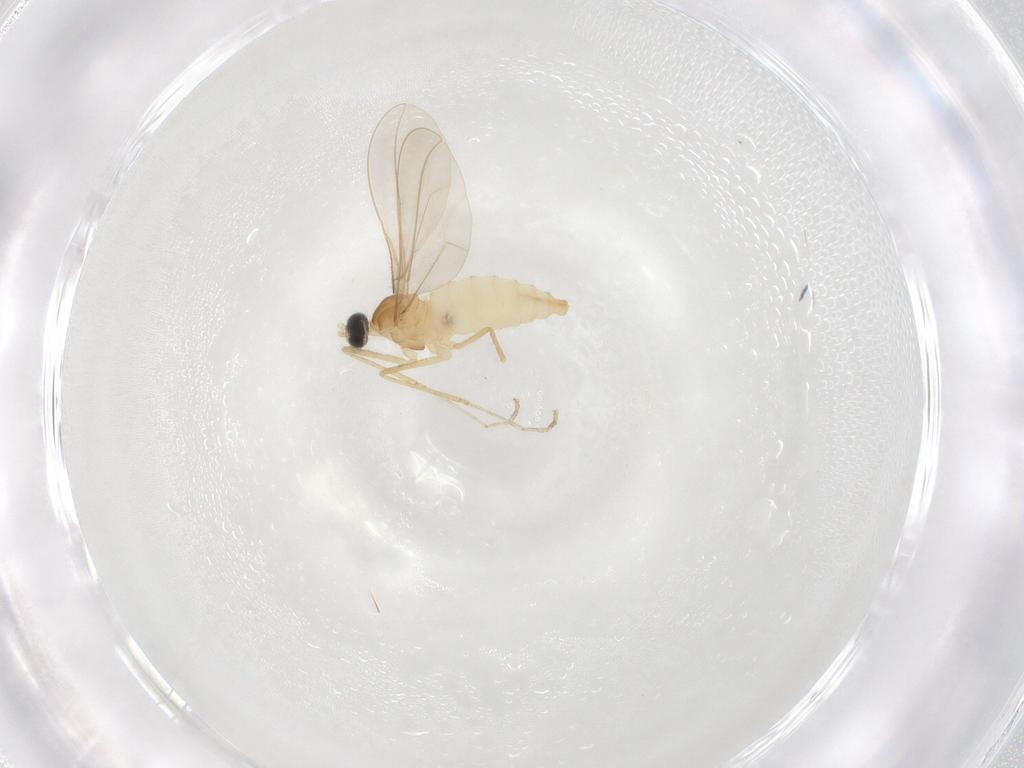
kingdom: Animalia
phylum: Arthropoda
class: Insecta
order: Diptera
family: Cecidomyiidae
